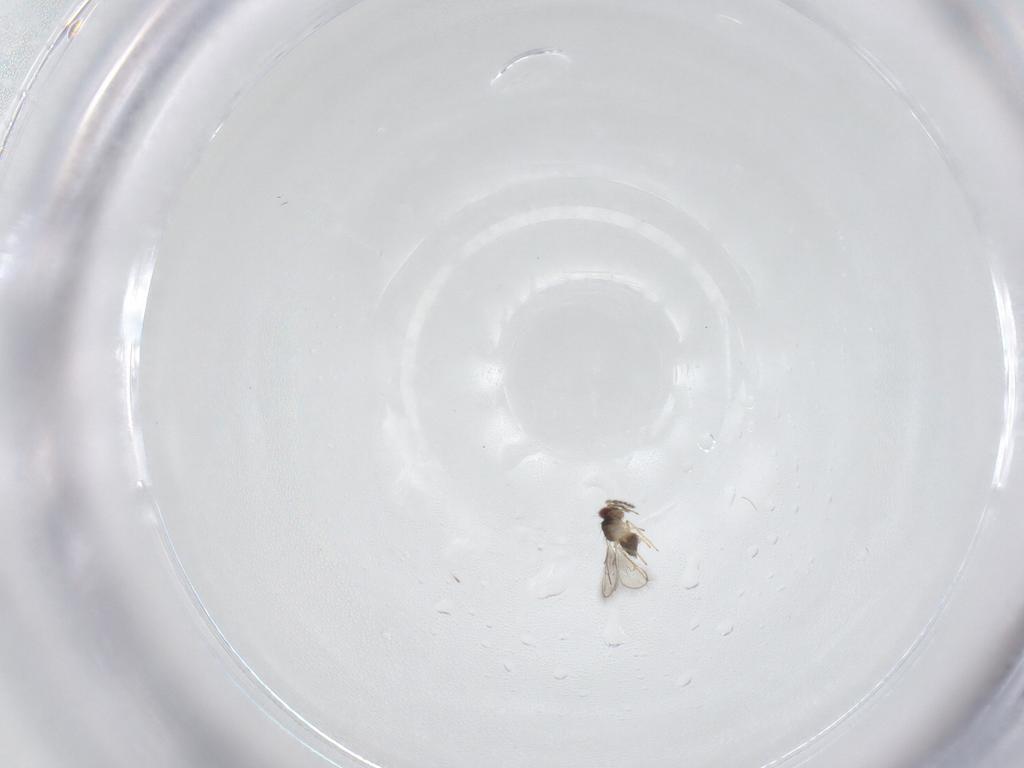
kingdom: Animalia
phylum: Arthropoda
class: Insecta
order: Hymenoptera
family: Eulophidae
